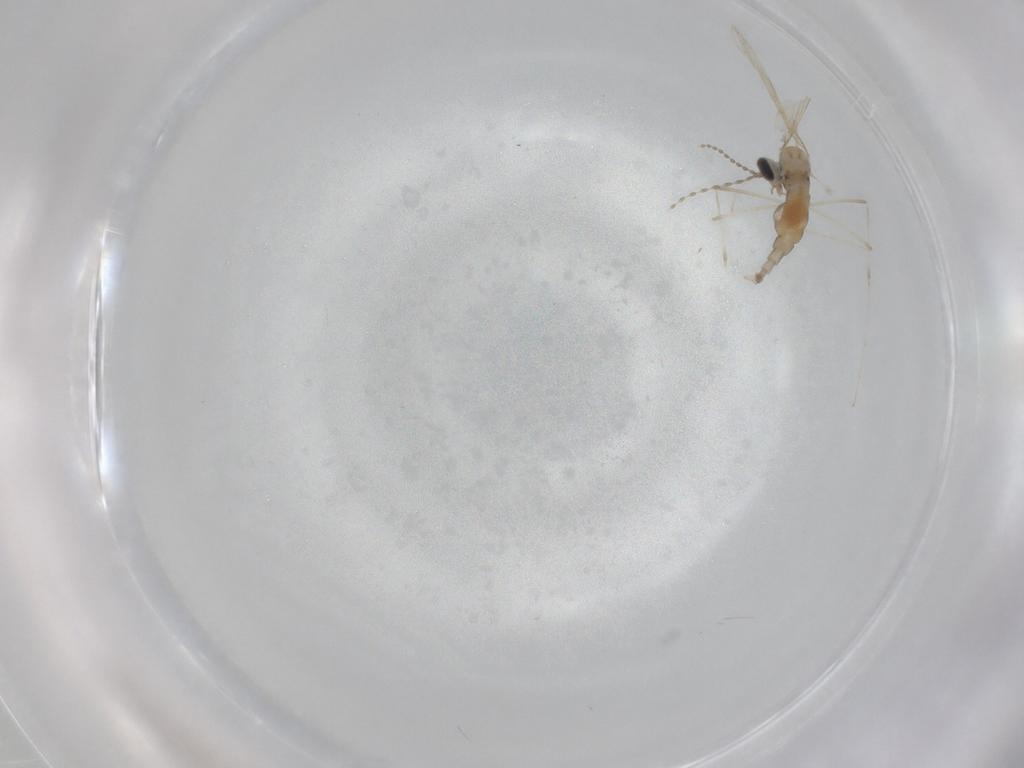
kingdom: Animalia
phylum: Arthropoda
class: Insecta
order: Diptera
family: Cecidomyiidae
